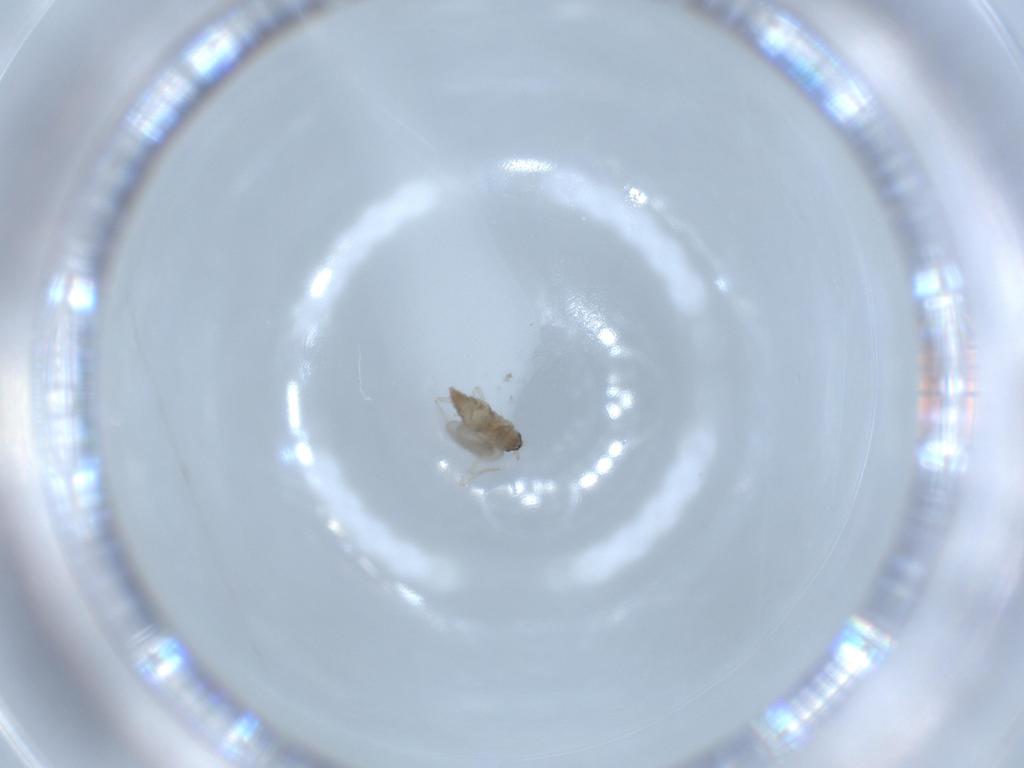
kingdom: Animalia
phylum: Arthropoda
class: Insecta
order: Diptera
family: Cecidomyiidae
